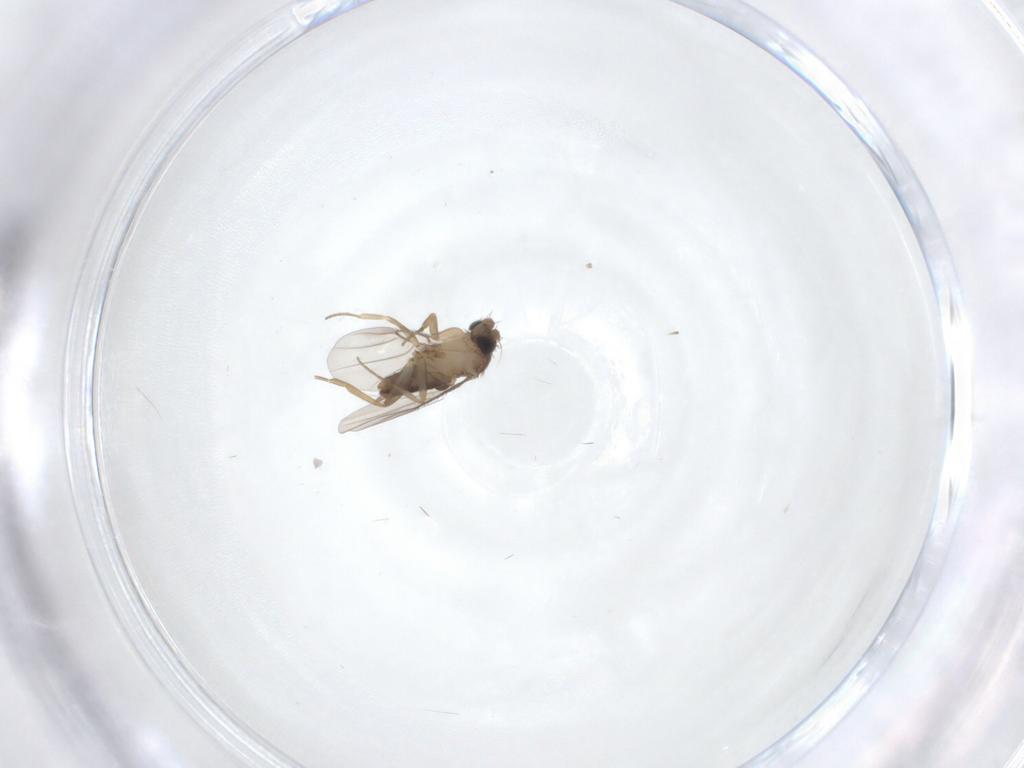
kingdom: Animalia
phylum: Arthropoda
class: Insecta
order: Diptera
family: Phoridae
